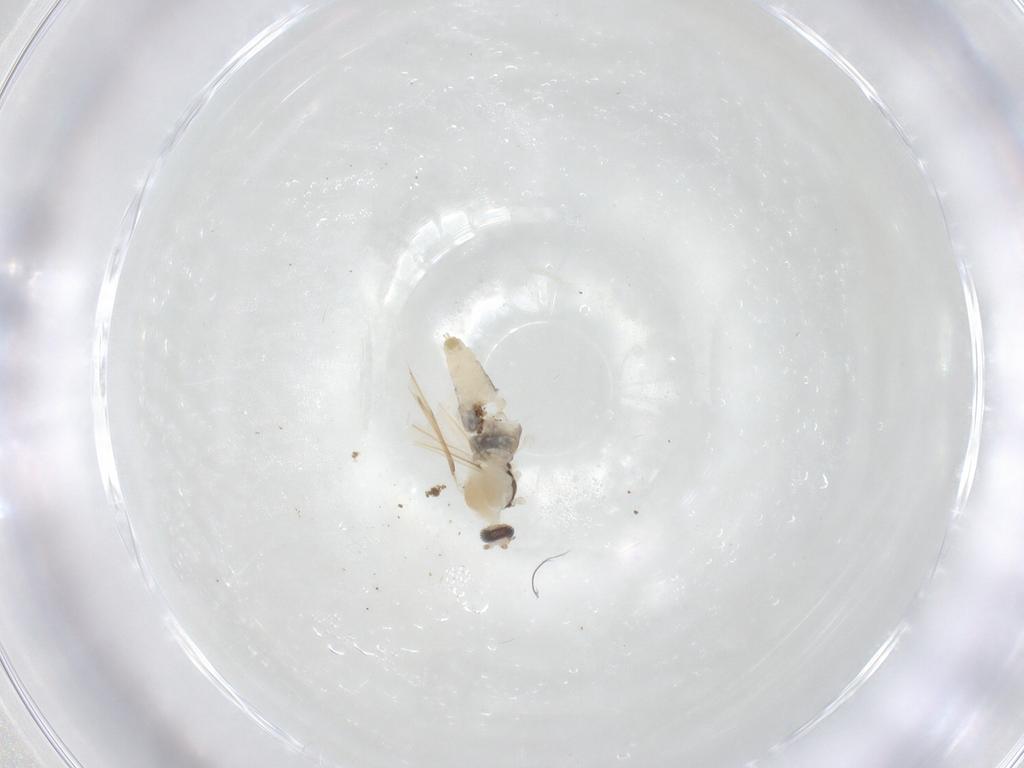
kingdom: Animalia
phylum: Arthropoda
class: Insecta
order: Diptera
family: Cecidomyiidae
